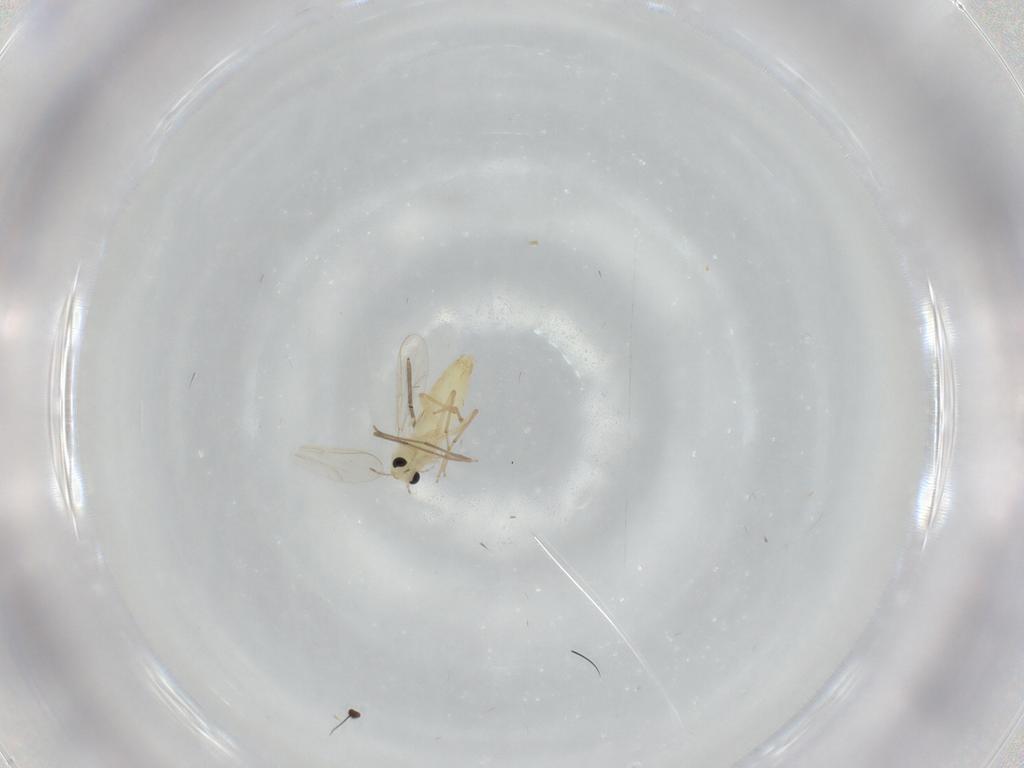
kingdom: Animalia
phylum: Arthropoda
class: Insecta
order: Diptera
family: Chironomidae
